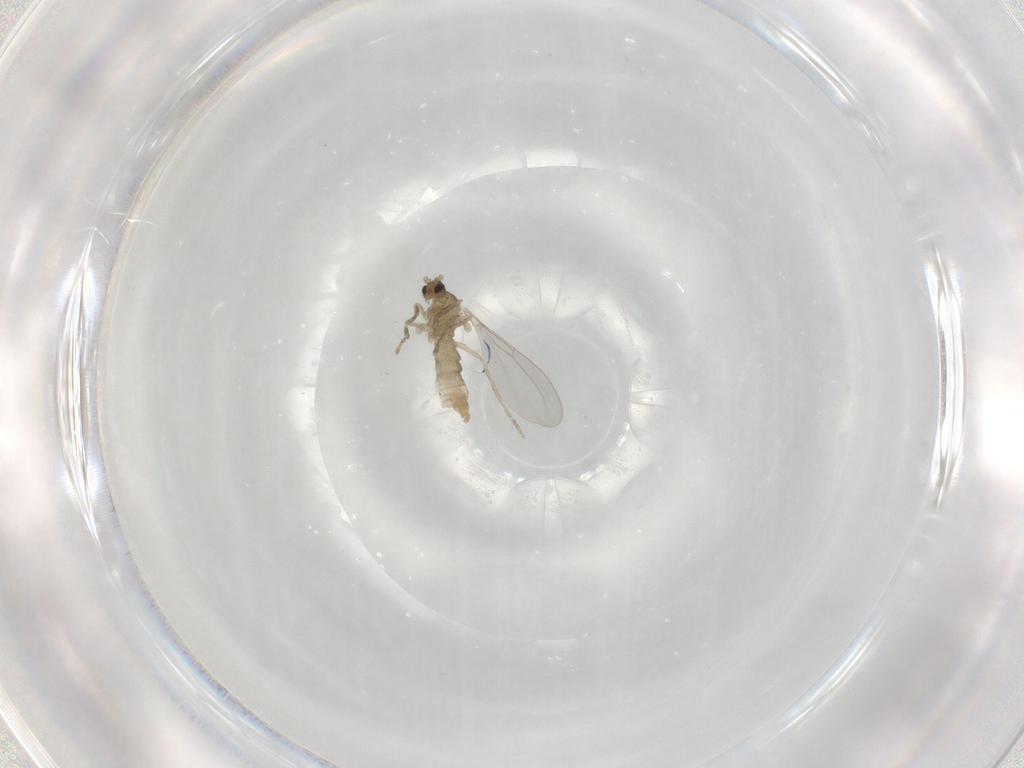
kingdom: Animalia
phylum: Arthropoda
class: Insecta
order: Diptera
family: Cecidomyiidae
